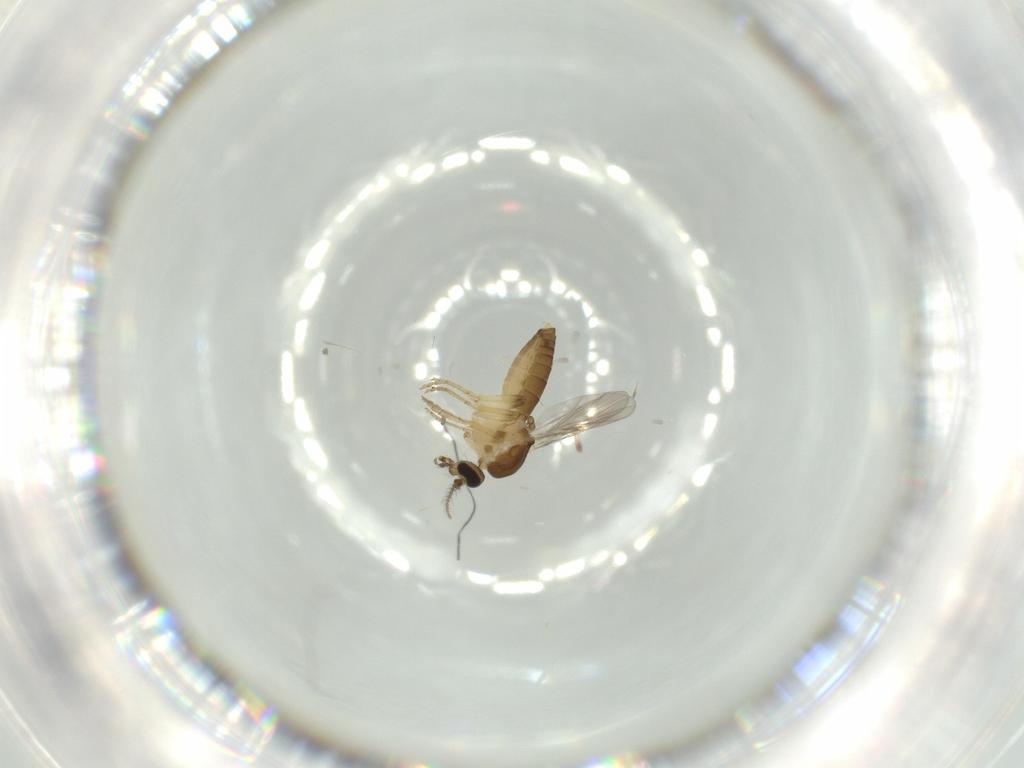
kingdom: Animalia
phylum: Arthropoda
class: Insecta
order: Diptera
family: Ceratopogonidae
